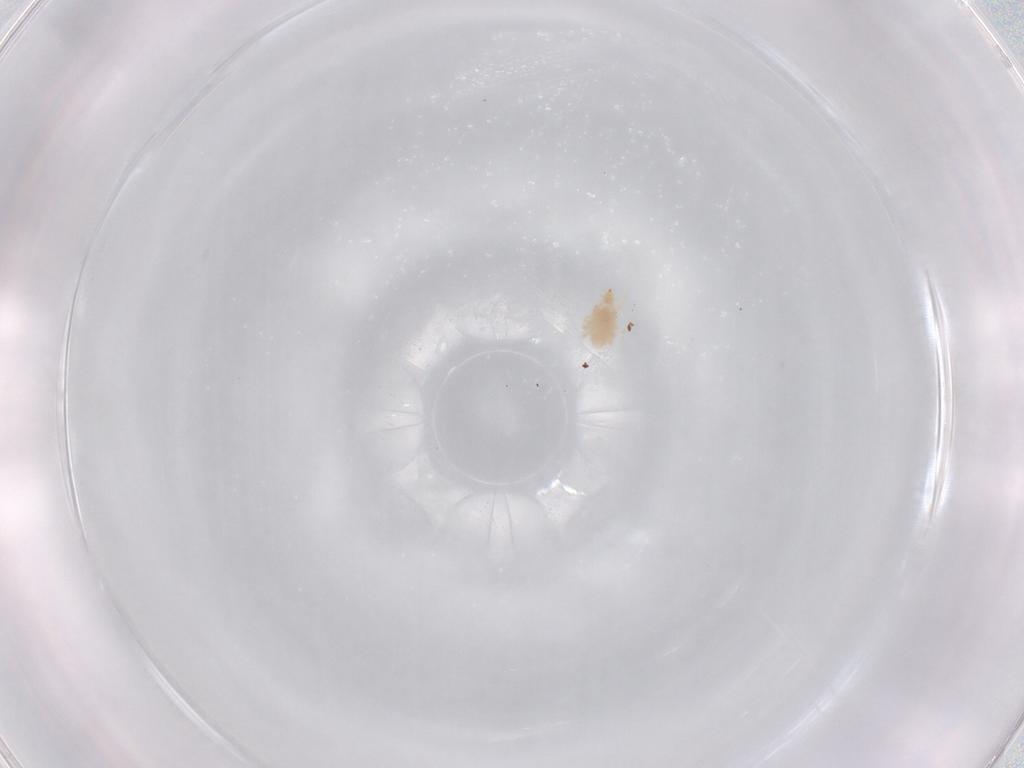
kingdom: Animalia
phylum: Arthropoda
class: Arachnida
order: Trombidiformes
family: Bdellidae
